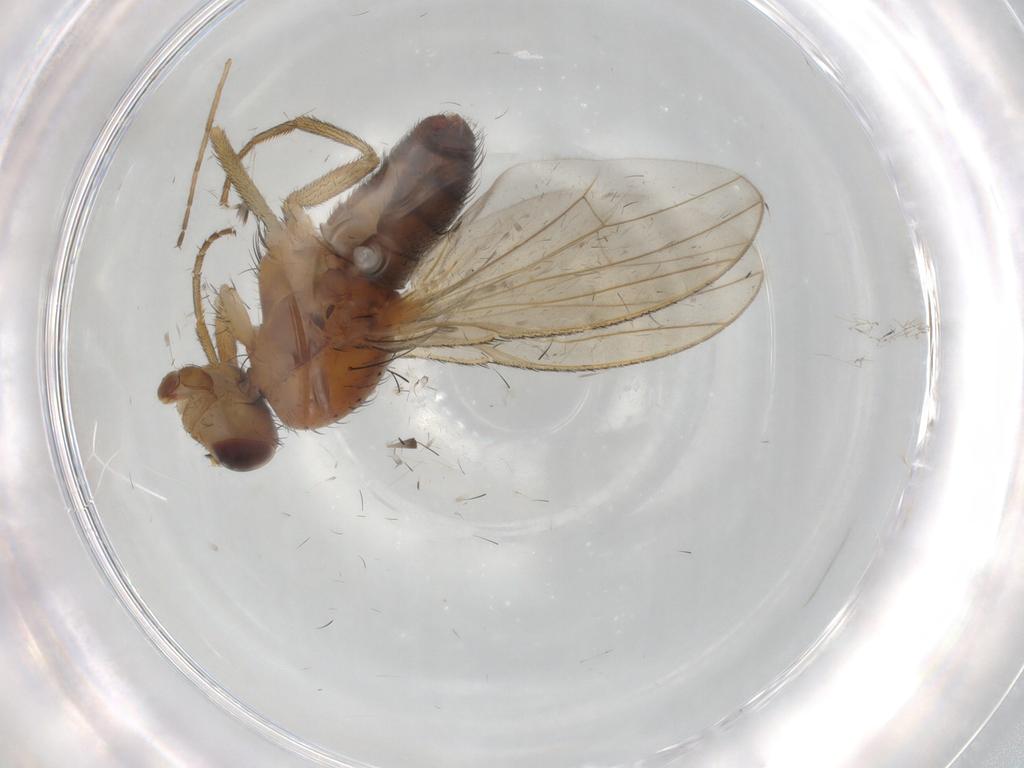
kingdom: Animalia
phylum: Arthropoda
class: Insecta
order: Diptera
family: Heleomyzidae
